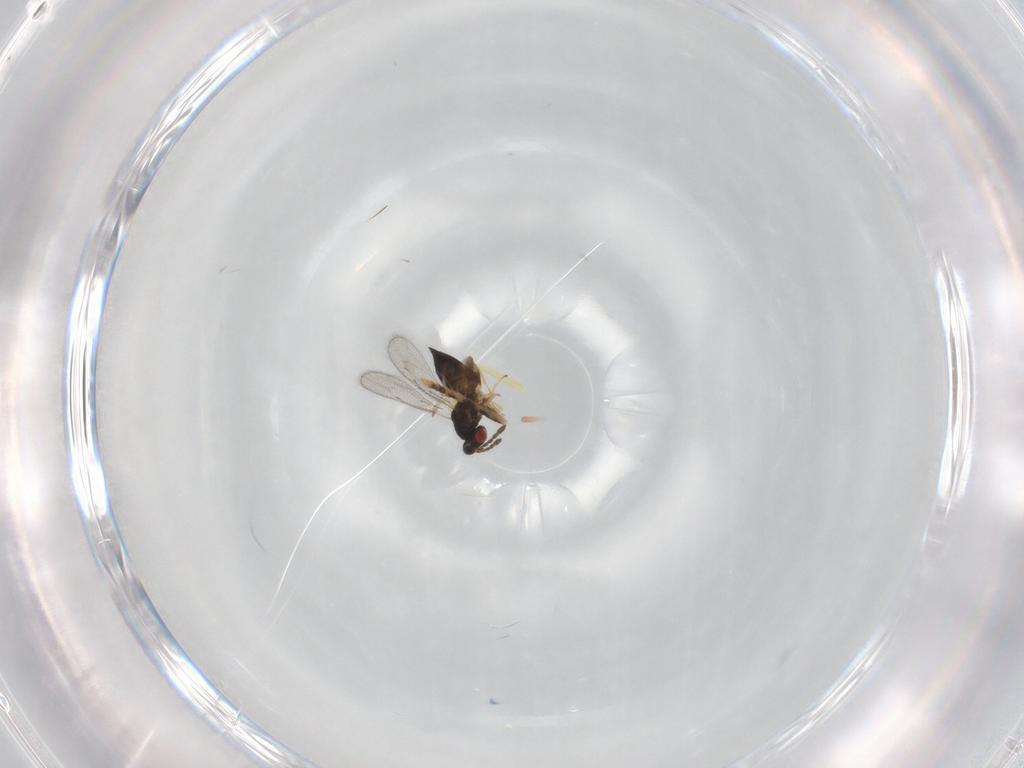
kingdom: Animalia
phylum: Arthropoda
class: Insecta
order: Hymenoptera
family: Eulophidae
